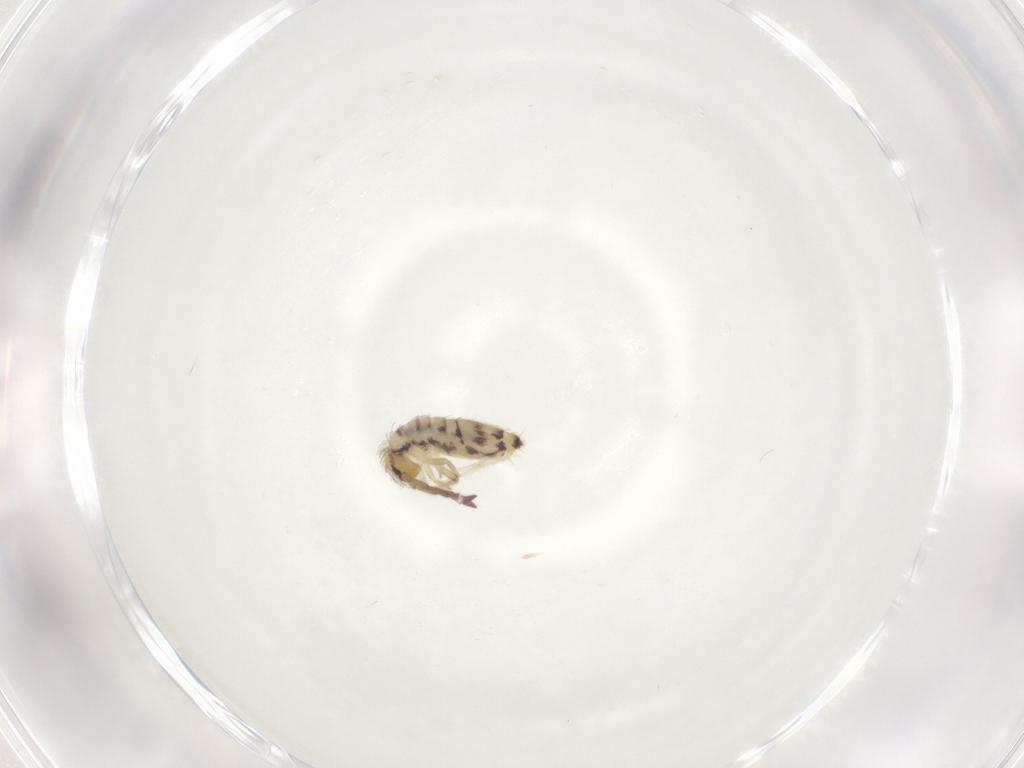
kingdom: Animalia
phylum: Arthropoda
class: Collembola
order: Entomobryomorpha
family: Entomobryidae
